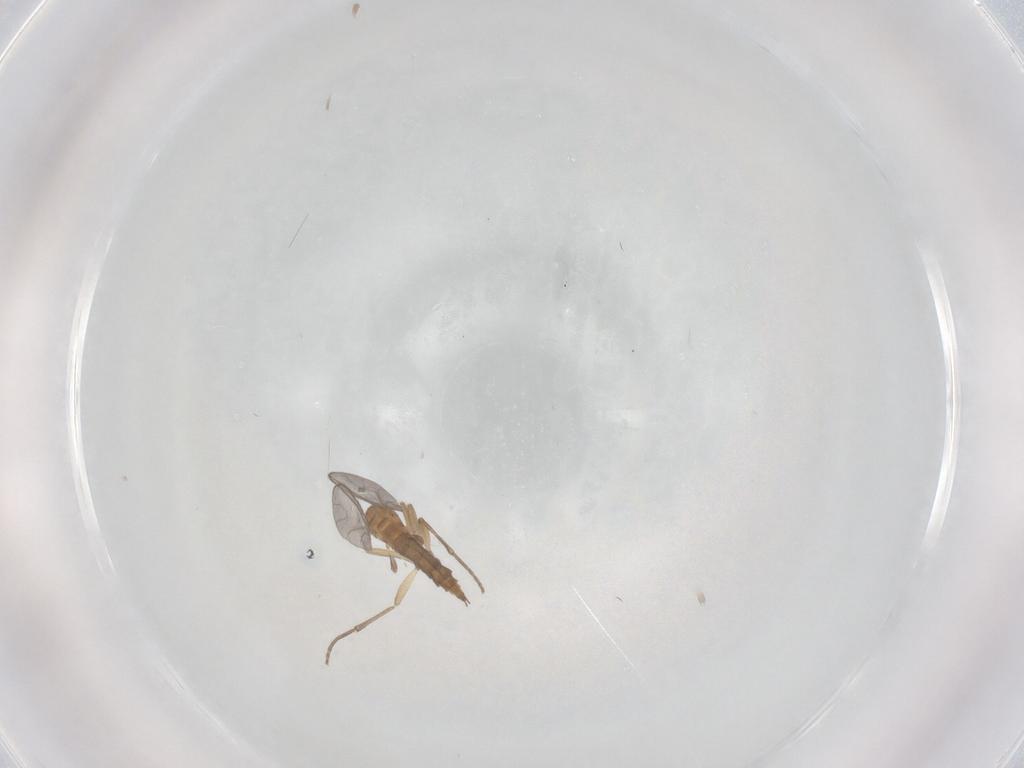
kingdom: Animalia
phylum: Arthropoda
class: Insecta
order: Diptera
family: Sciaridae
